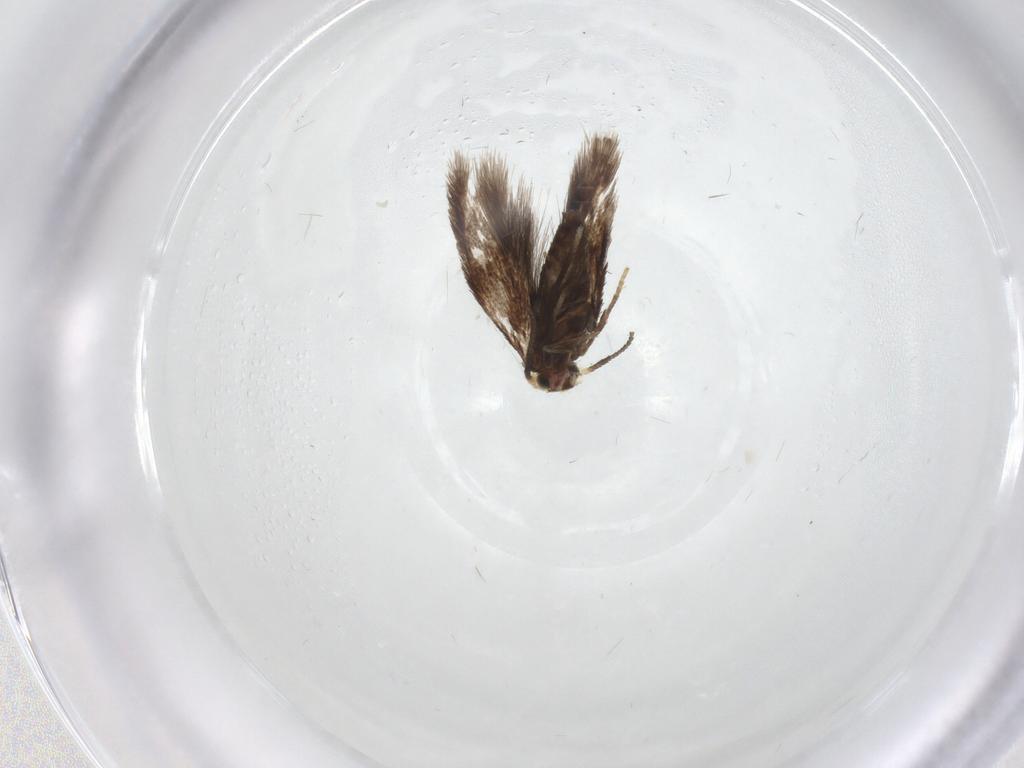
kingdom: Animalia
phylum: Arthropoda
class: Insecta
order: Lepidoptera
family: Nepticulidae
